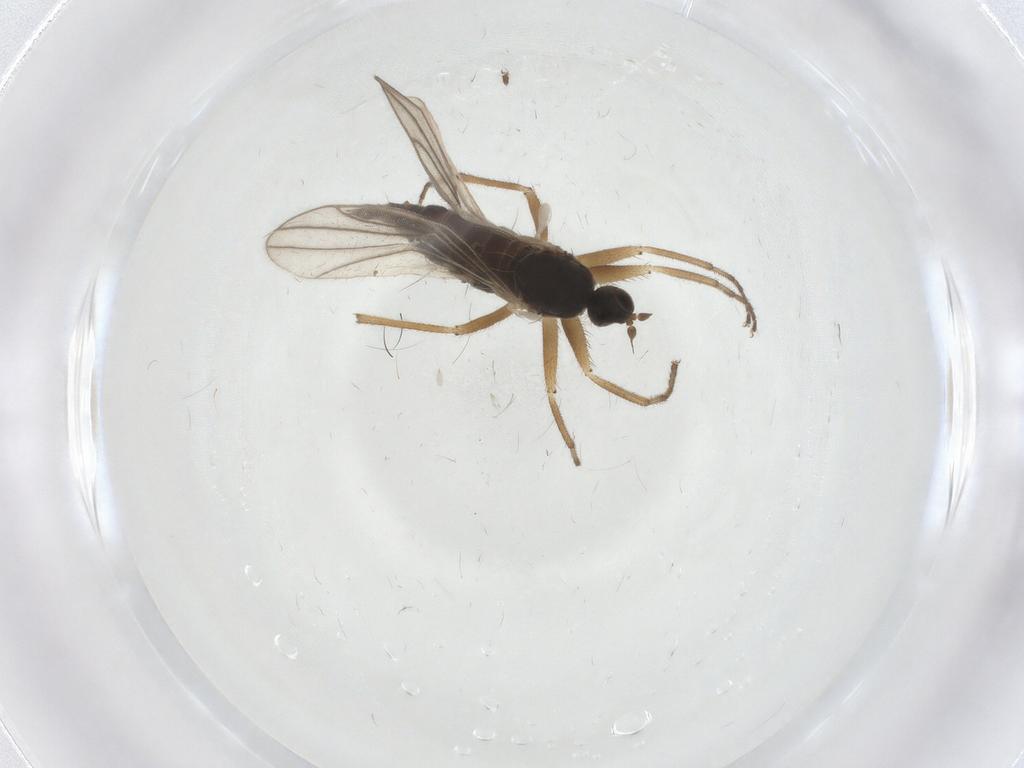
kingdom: Animalia
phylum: Arthropoda
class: Insecta
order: Diptera
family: Hybotidae
